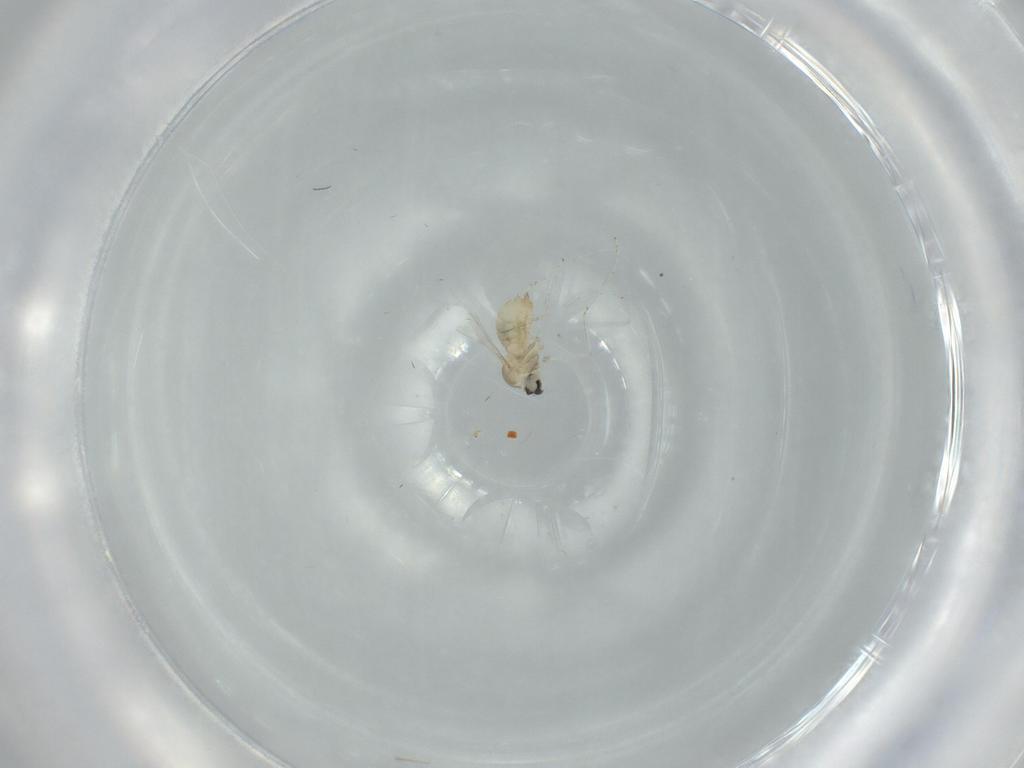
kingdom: Animalia
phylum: Arthropoda
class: Insecta
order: Diptera
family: Cecidomyiidae
